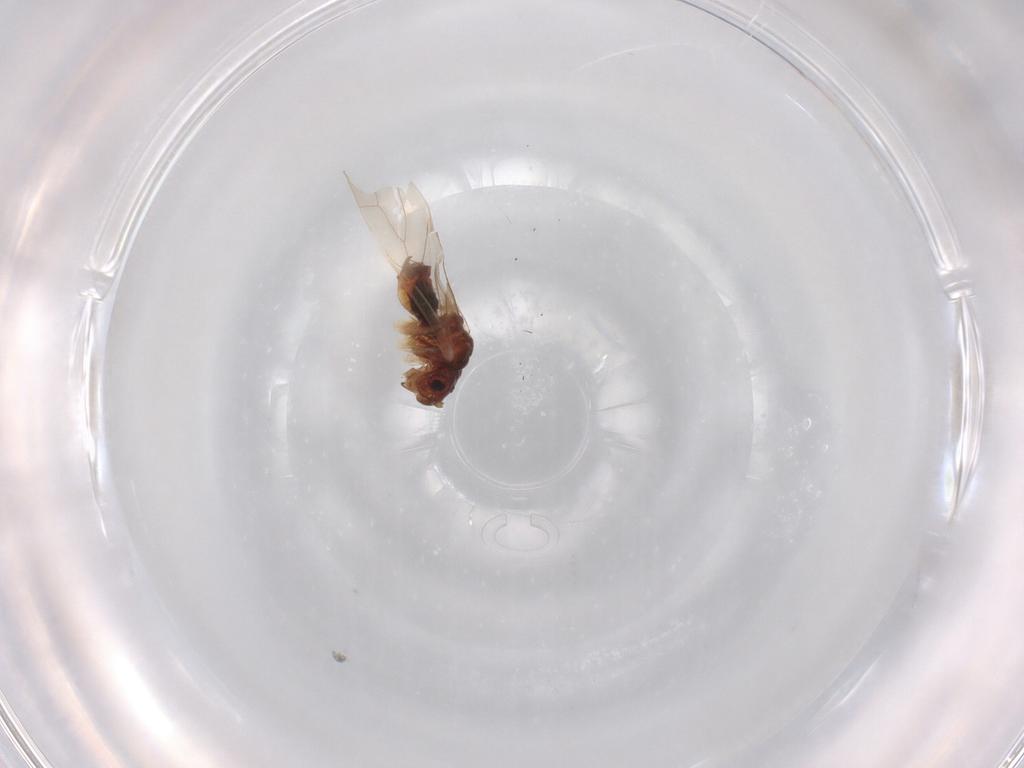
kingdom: Animalia
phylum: Arthropoda
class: Insecta
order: Psocodea
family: Caeciliusidae
